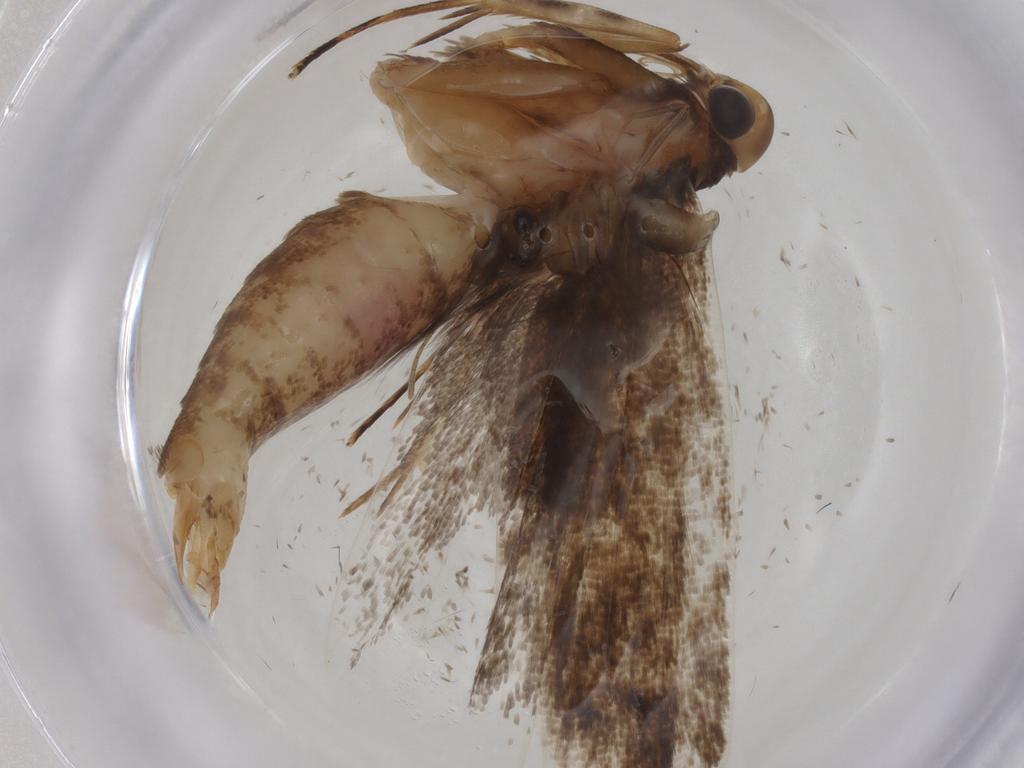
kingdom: Animalia
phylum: Arthropoda
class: Insecta
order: Lepidoptera
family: Gelechiidae
